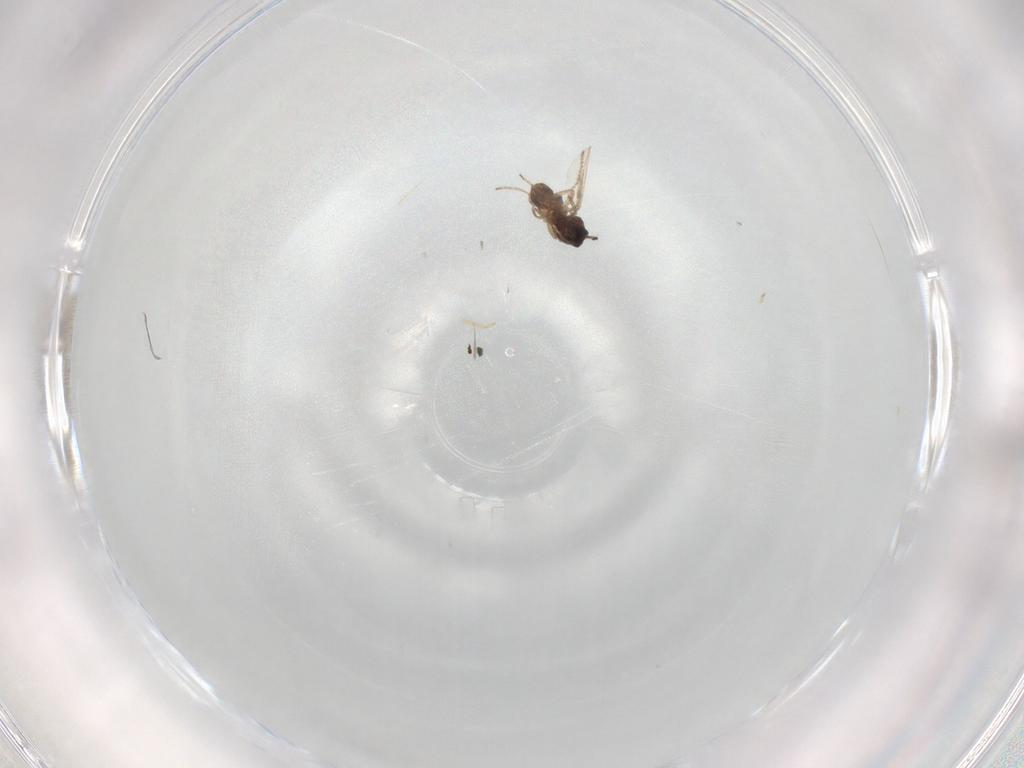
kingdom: Animalia
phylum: Arthropoda
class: Insecta
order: Diptera
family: Ceratopogonidae
